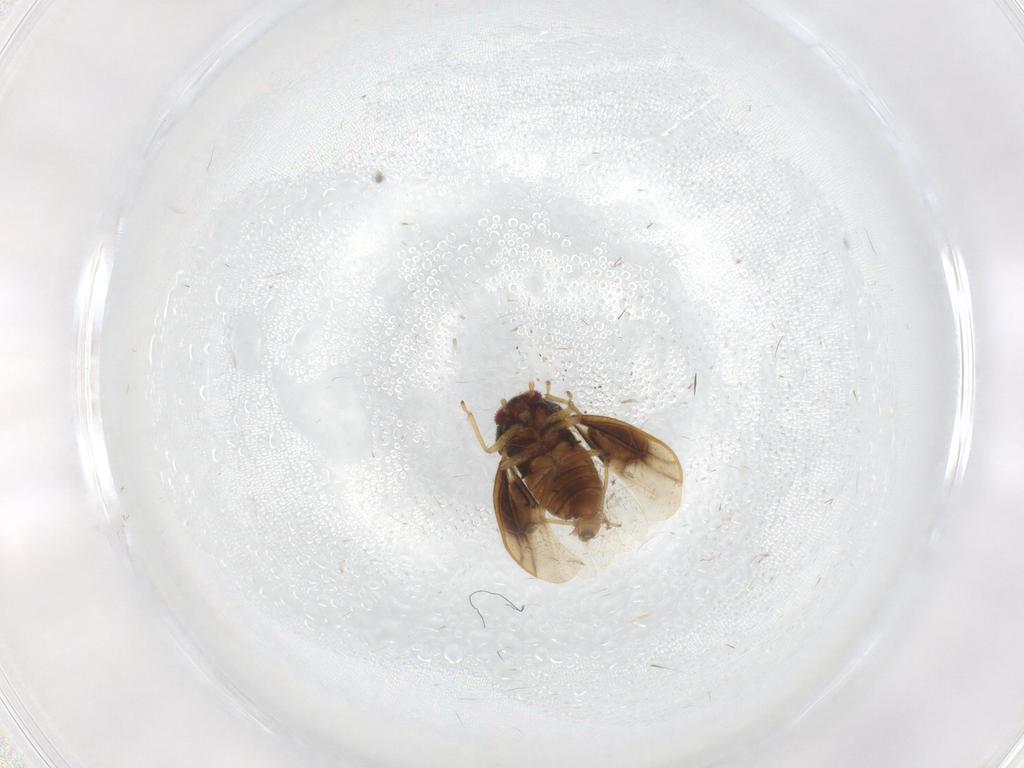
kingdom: Animalia
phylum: Arthropoda
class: Insecta
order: Hemiptera
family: Schizopteridae
